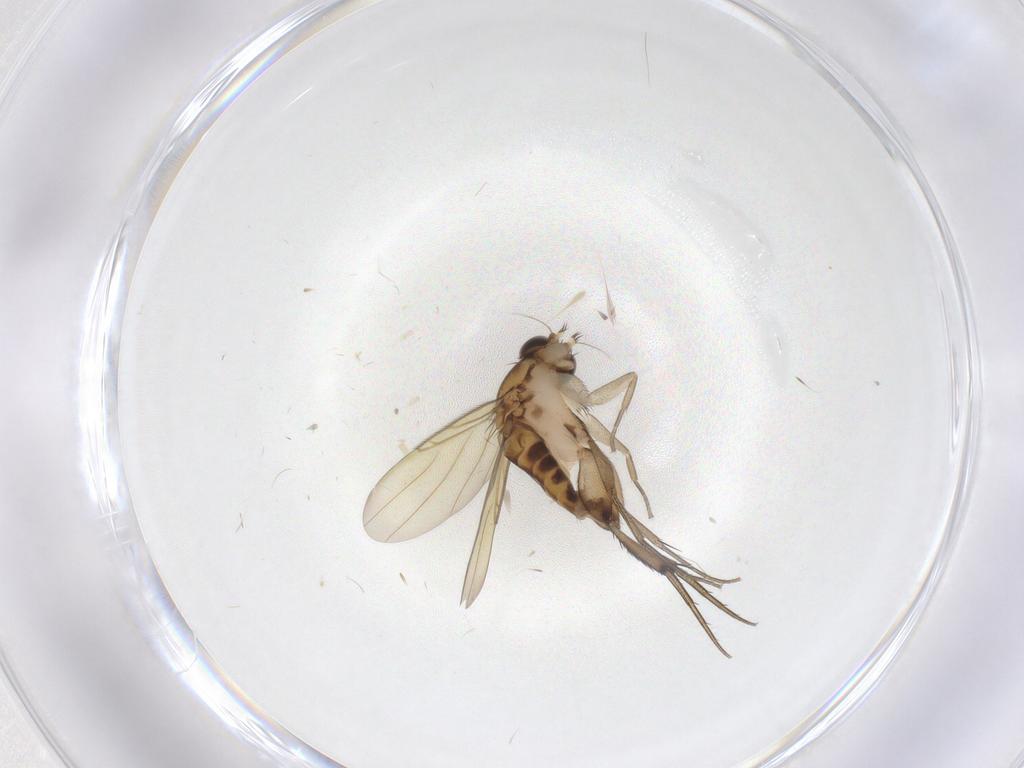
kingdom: Animalia
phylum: Arthropoda
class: Insecta
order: Diptera
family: Phoridae
